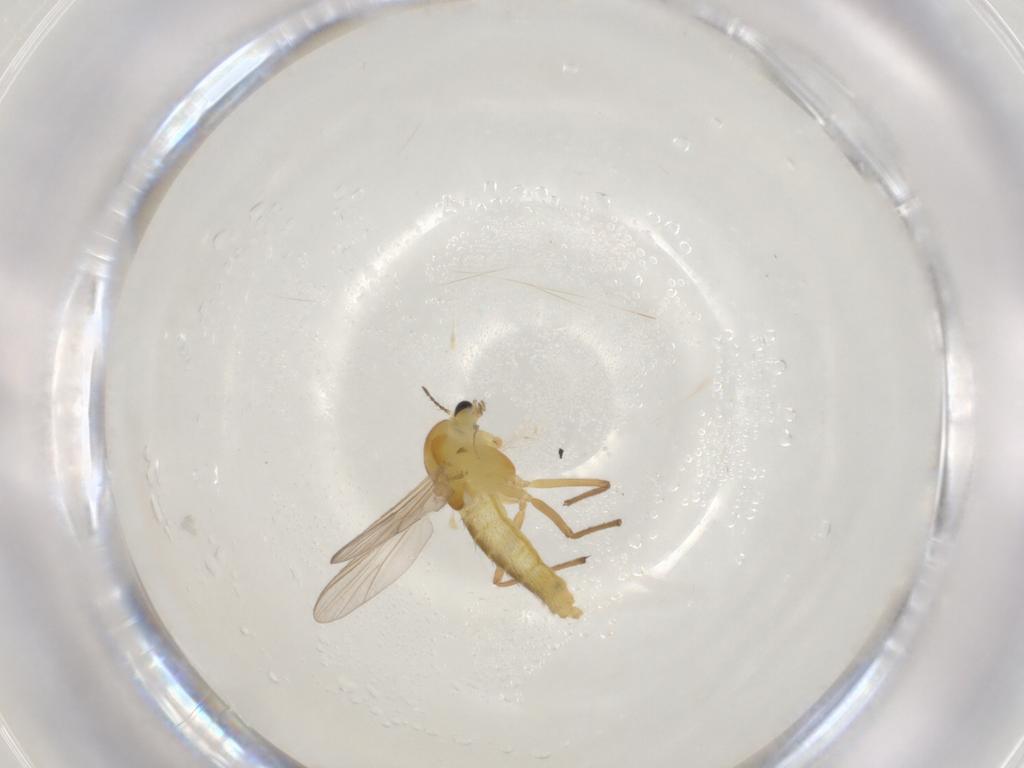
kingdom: Animalia
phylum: Arthropoda
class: Insecta
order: Diptera
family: Chironomidae
